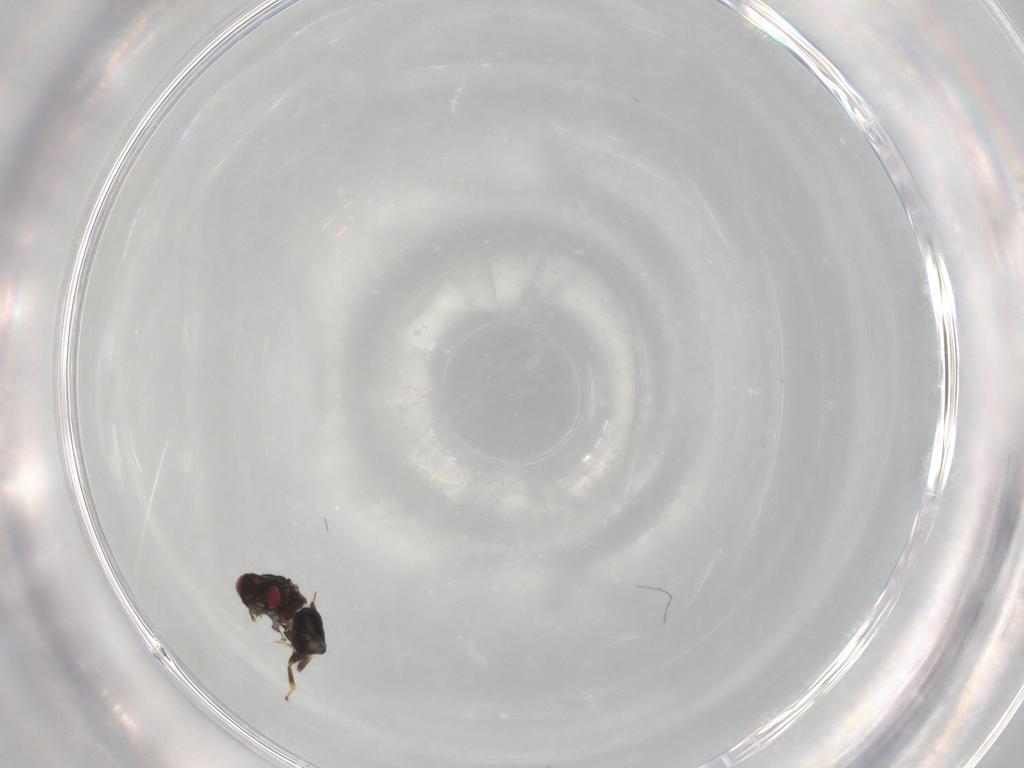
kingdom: Animalia
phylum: Arthropoda
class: Insecta
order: Hymenoptera
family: Eulophidae
